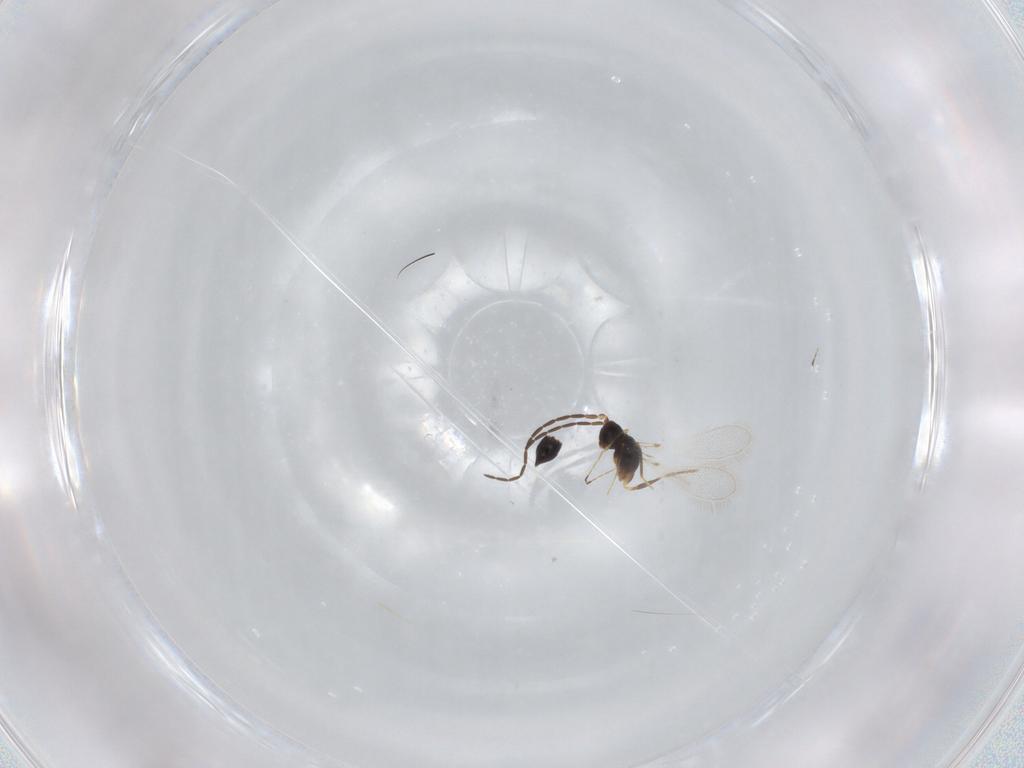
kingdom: Animalia
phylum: Arthropoda
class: Insecta
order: Hymenoptera
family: Mymaridae
